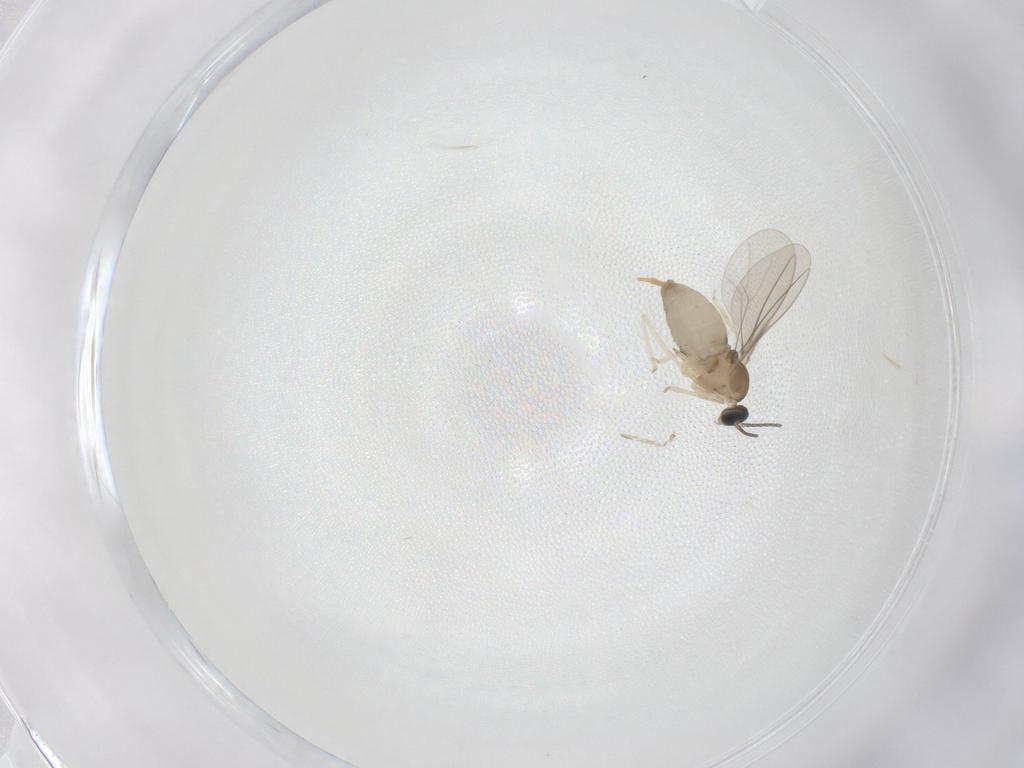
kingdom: Animalia
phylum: Arthropoda
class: Insecta
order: Diptera
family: Cecidomyiidae
